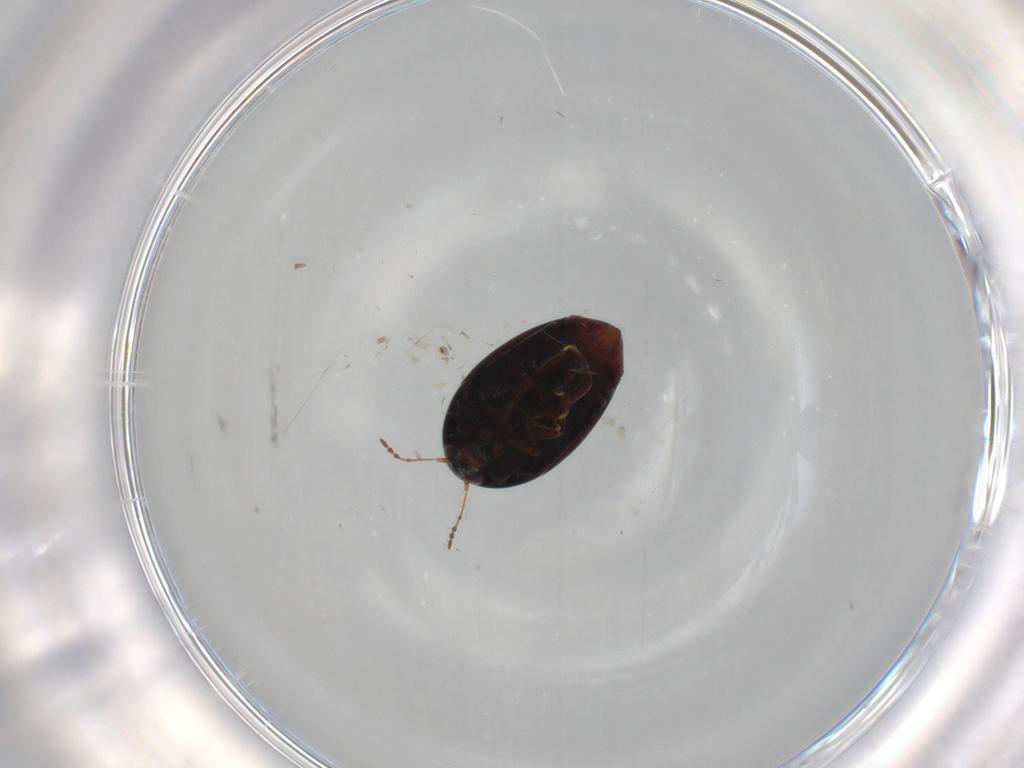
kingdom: Animalia
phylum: Arthropoda
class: Insecta
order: Coleoptera
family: Staphylinidae
